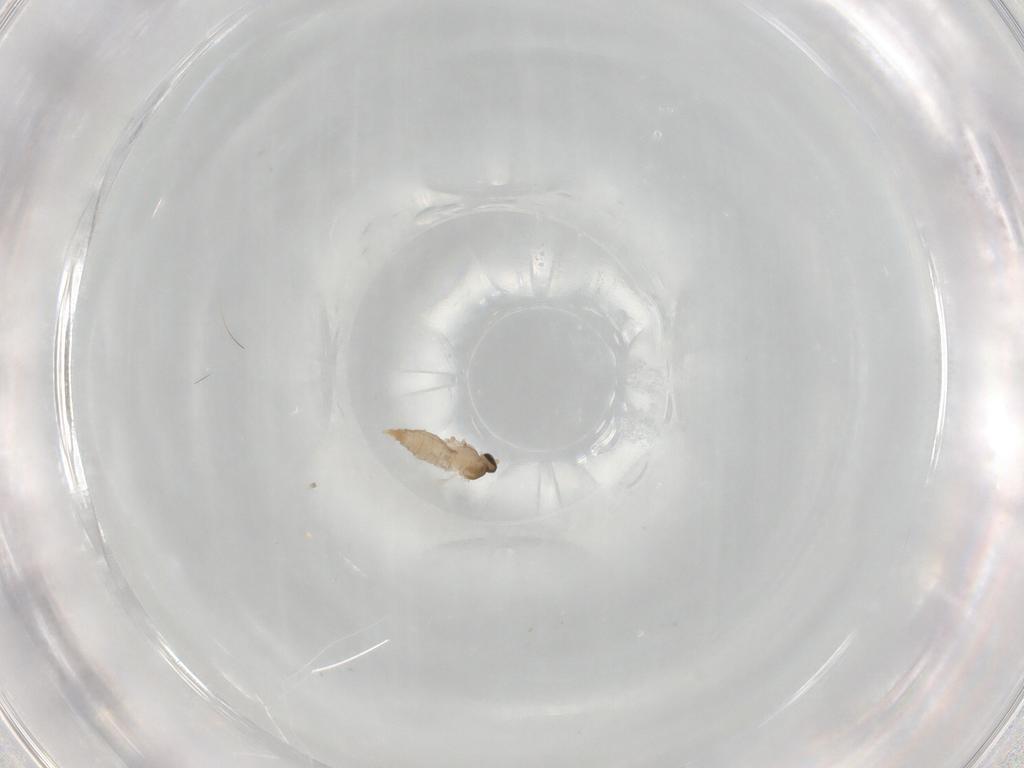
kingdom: Animalia
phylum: Arthropoda
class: Insecta
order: Diptera
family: Cecidomyiidae
